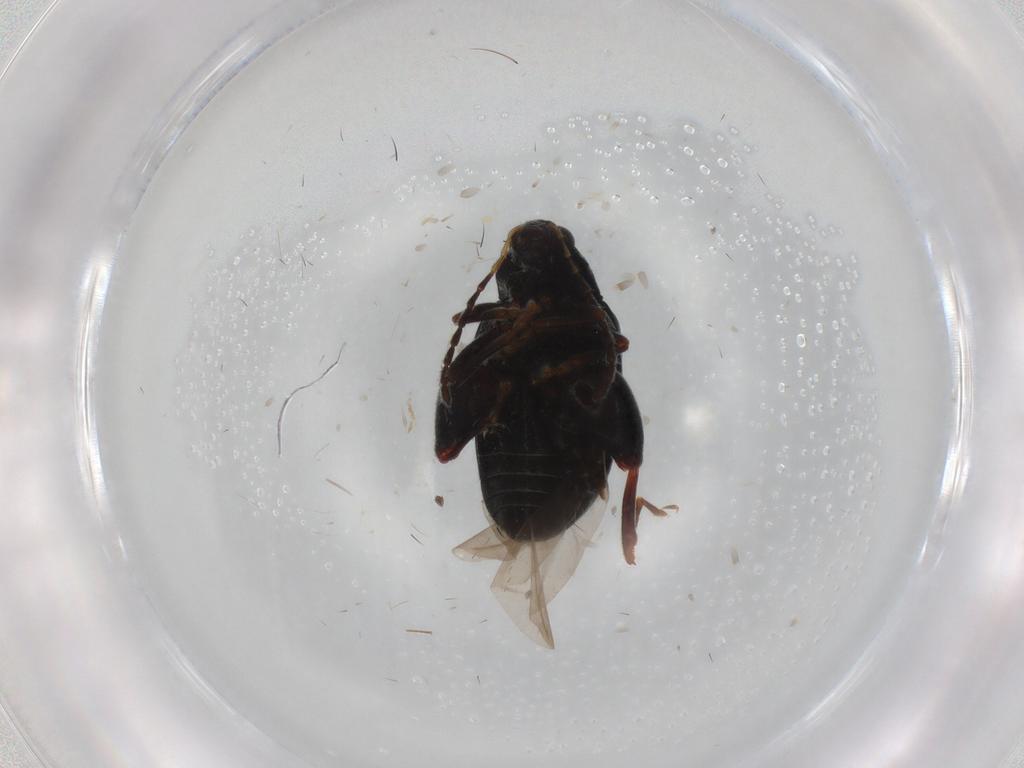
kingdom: Animalia
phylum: Arthropoda
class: Insecta
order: Coleoptera
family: Chrysomelidae
